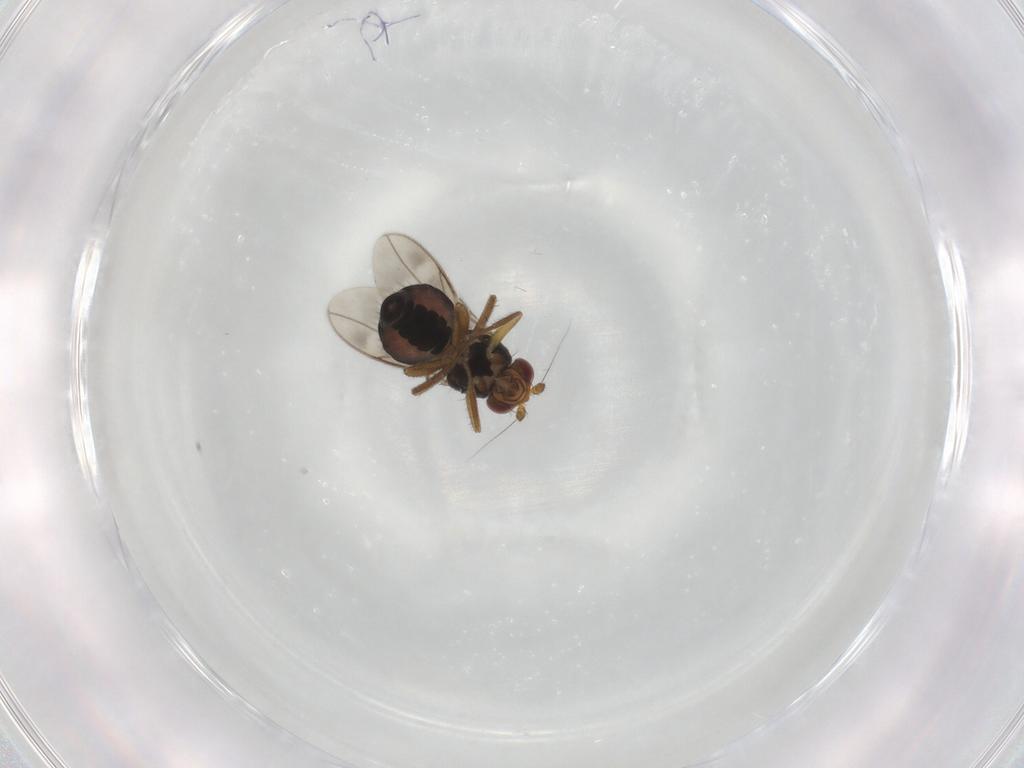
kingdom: Animalia
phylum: Arthropoda
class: Insecta
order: Diptera
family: Sphaeroceridae
